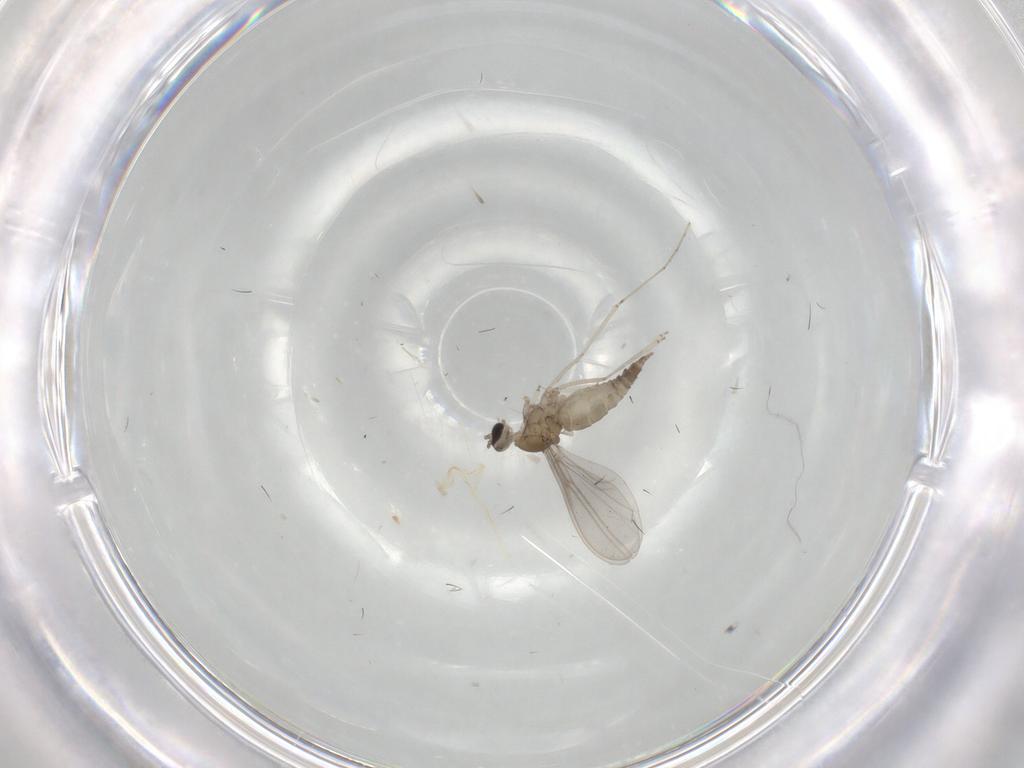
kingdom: Animalia
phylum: Arthropoda
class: Insecta
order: Diptera
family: Cecidomyiidae
